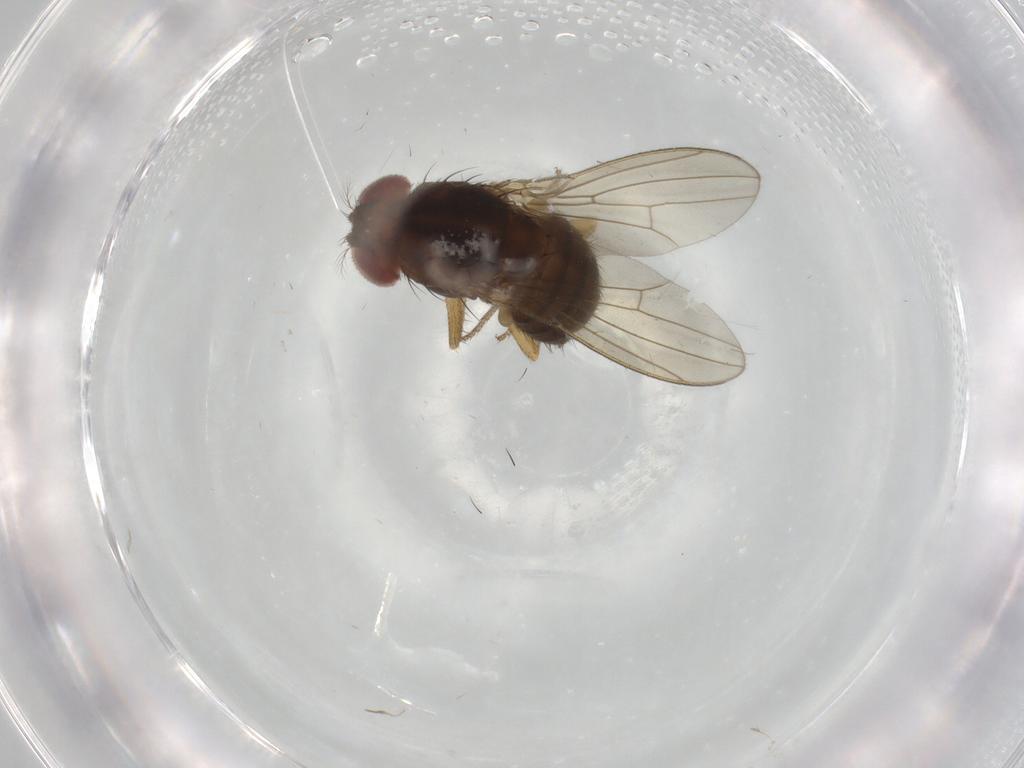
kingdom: Animalia
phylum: Arthropoda
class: Insecta
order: Diptera
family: Drosophilidae
